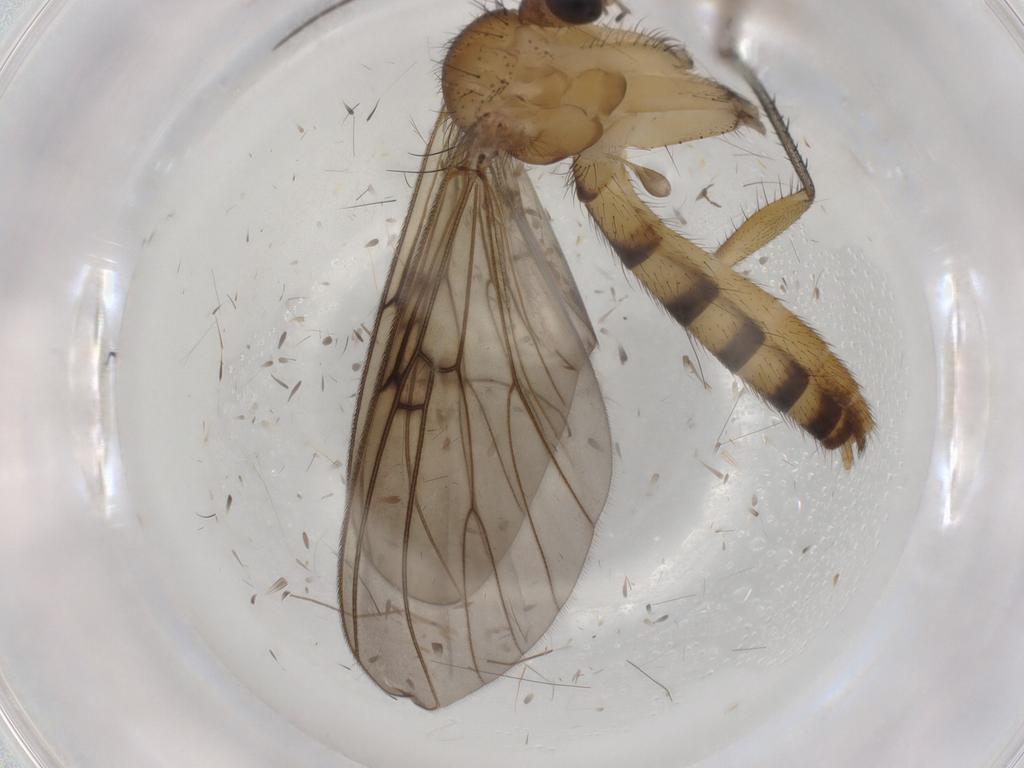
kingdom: Animalia
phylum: Arthropoda
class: Insecta
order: Diptera
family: Mycetophilidae
